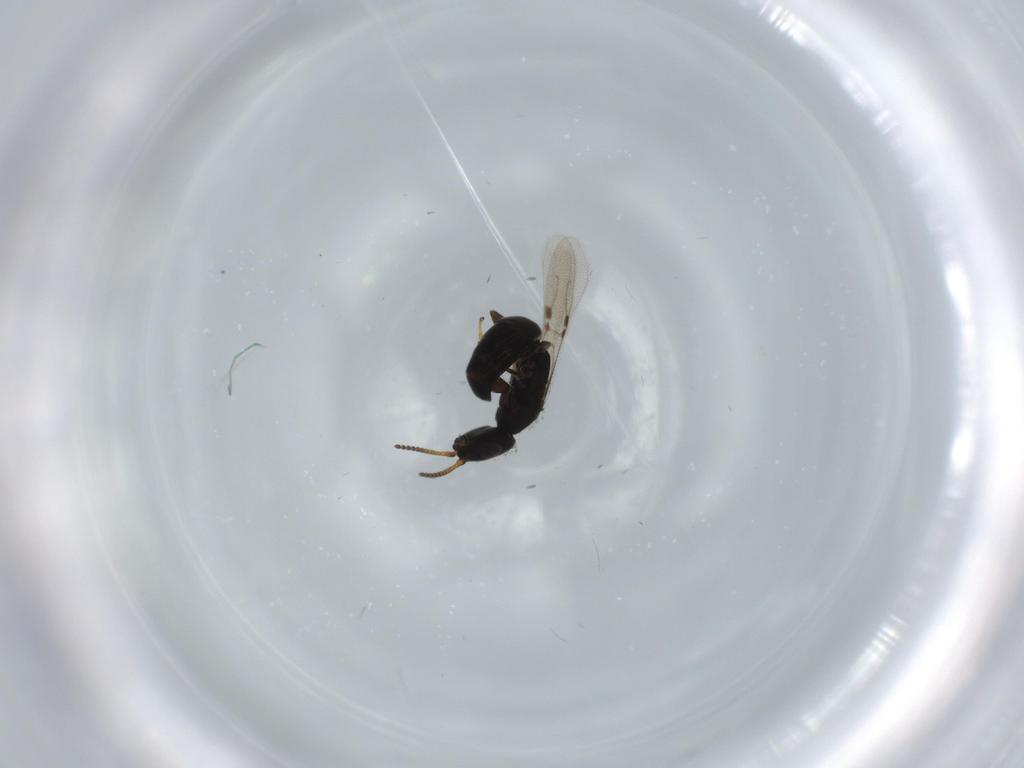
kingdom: Animalia
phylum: Arthropoda
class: Insecta
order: Hymenoptera
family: Bethylidae
